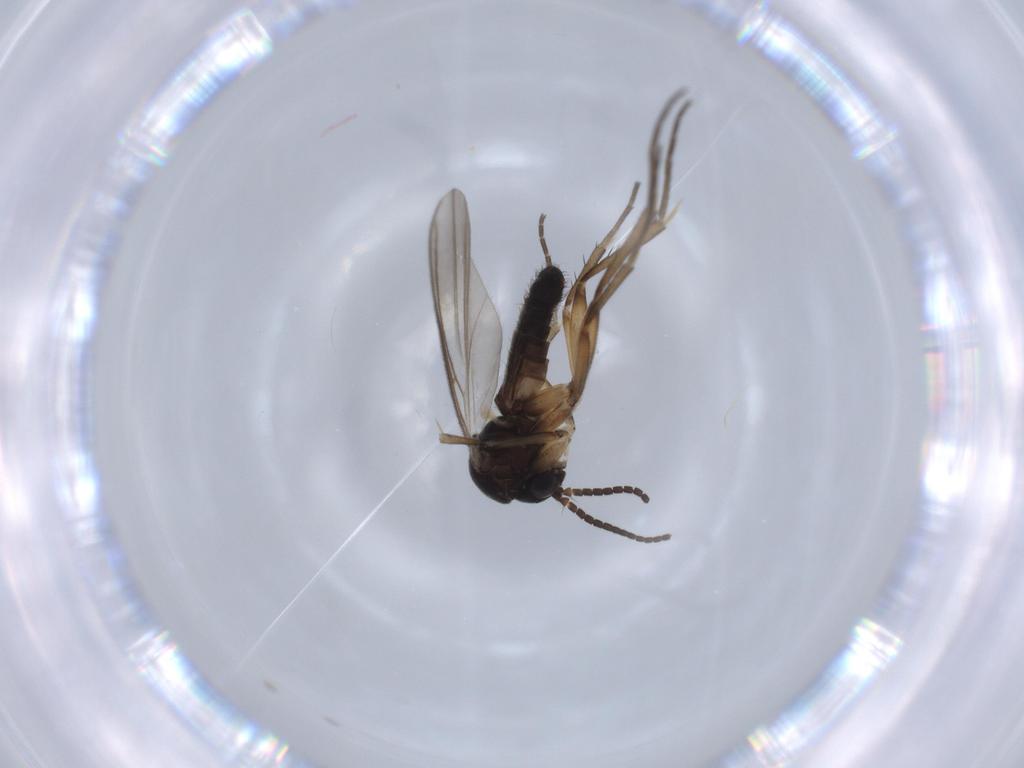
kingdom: Animalia
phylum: Arthropoda
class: Insecta
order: Diptera
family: Mycetophilidae
